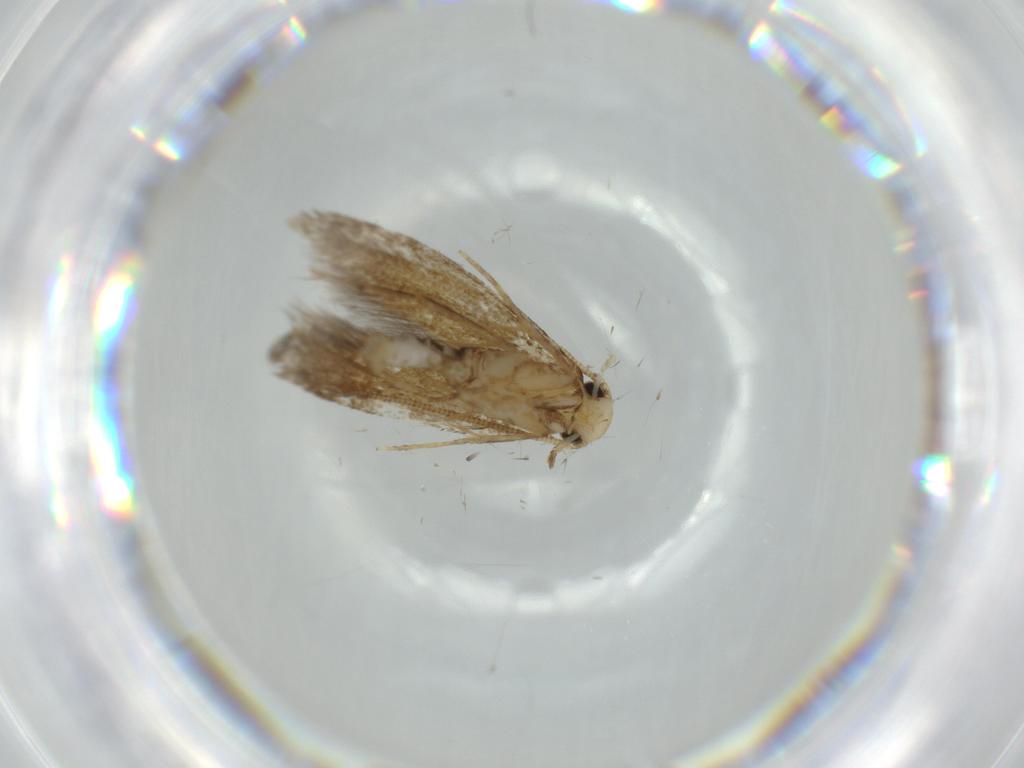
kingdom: Animalia
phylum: Arthropoda
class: Insecta
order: Lepidoptera
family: Tineidae
